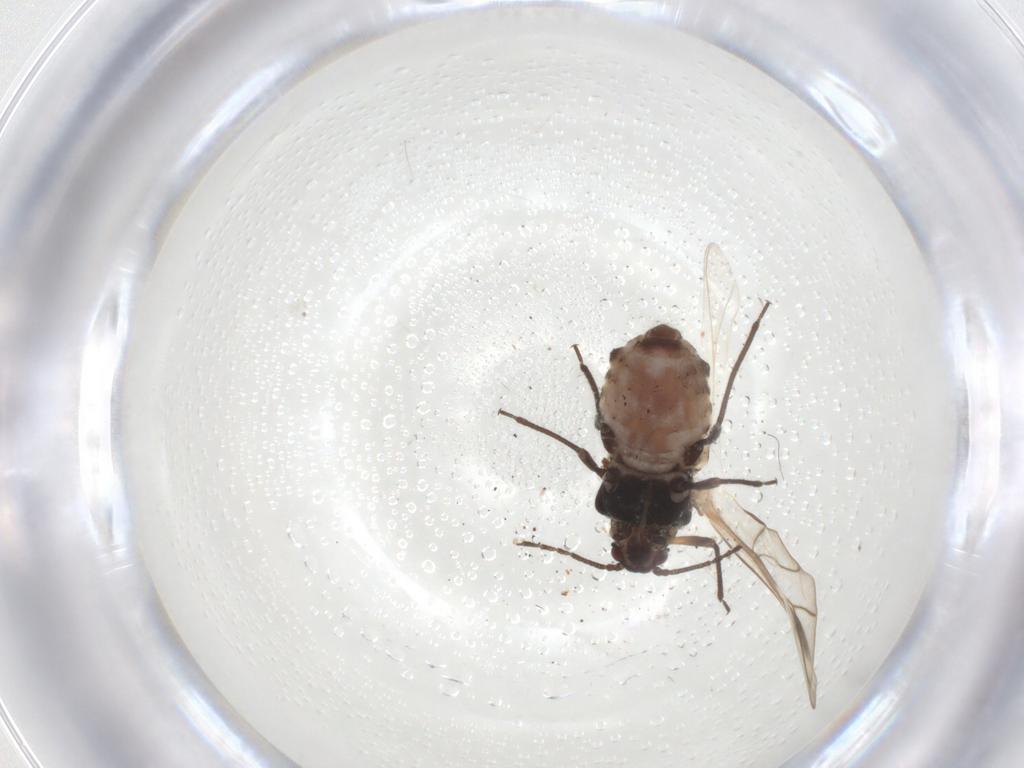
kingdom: Animalia
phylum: Arthropoda
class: Insecta
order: Hemiptera
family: Aphididae
